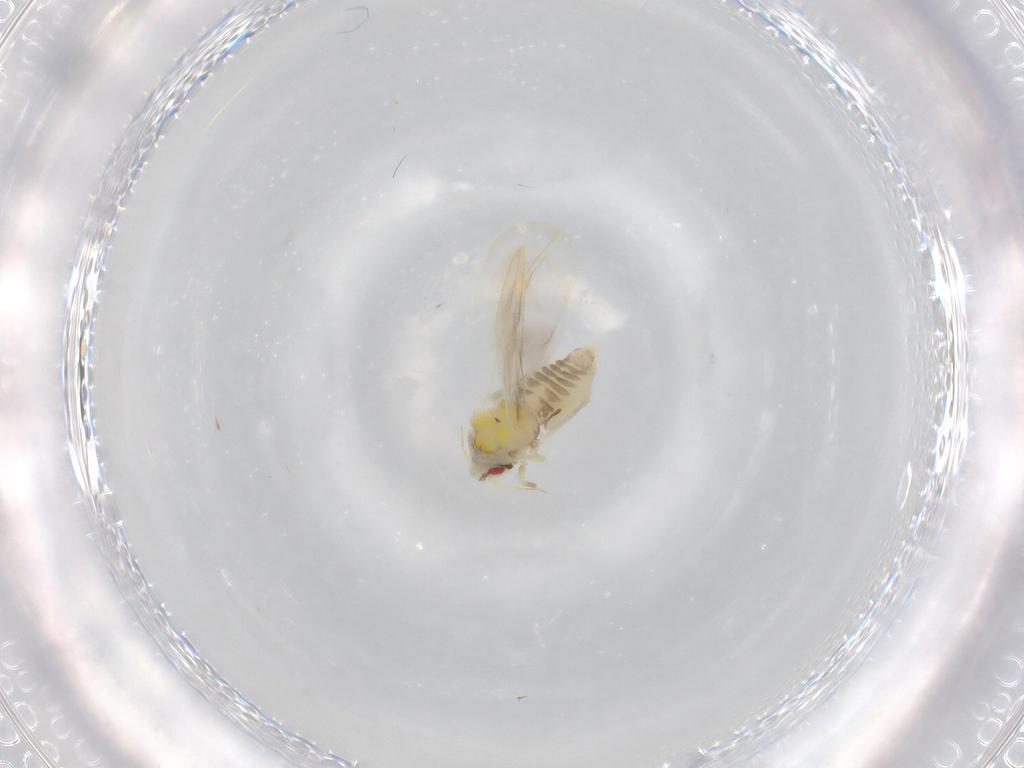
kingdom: Animalia
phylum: Arthropoda
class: Insecta
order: Hemiptera
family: Aleyrodidae
